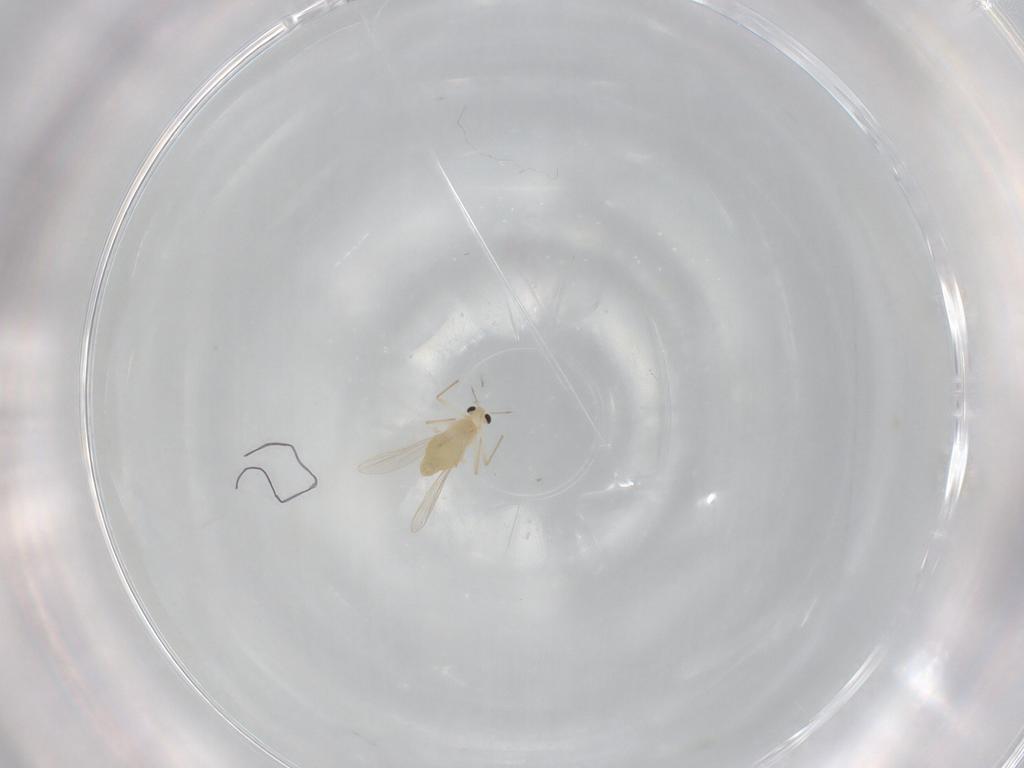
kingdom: Animalia
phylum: Arthropoda
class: Insecta
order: Diptera
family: Chironomidae
